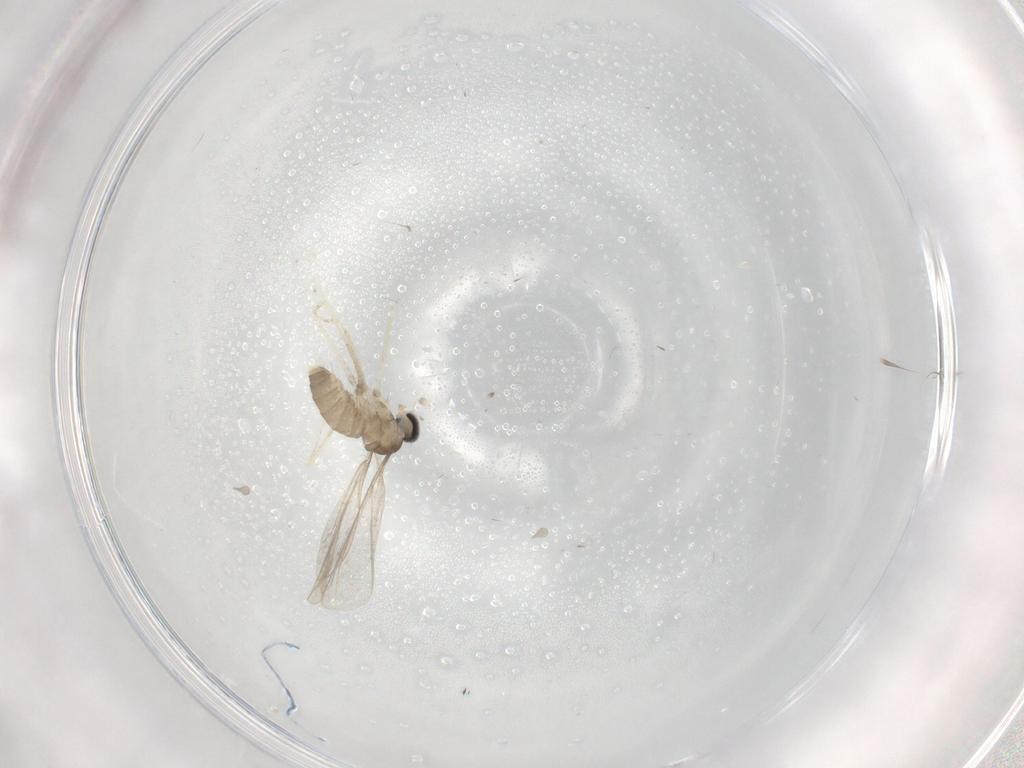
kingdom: Animalia
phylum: Arthropoda
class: Insecta
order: Diptera
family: Cecidomyiidae
